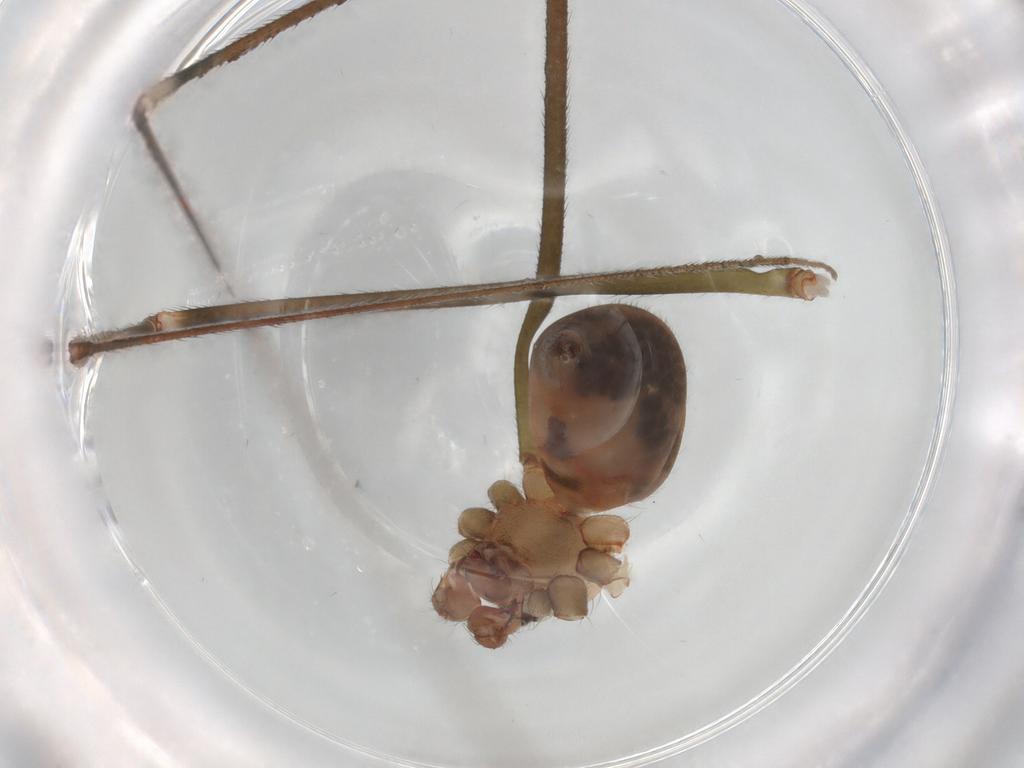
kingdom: Animalia
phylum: Arthropoda
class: Arachnida
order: Araneae
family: Pholcidae
